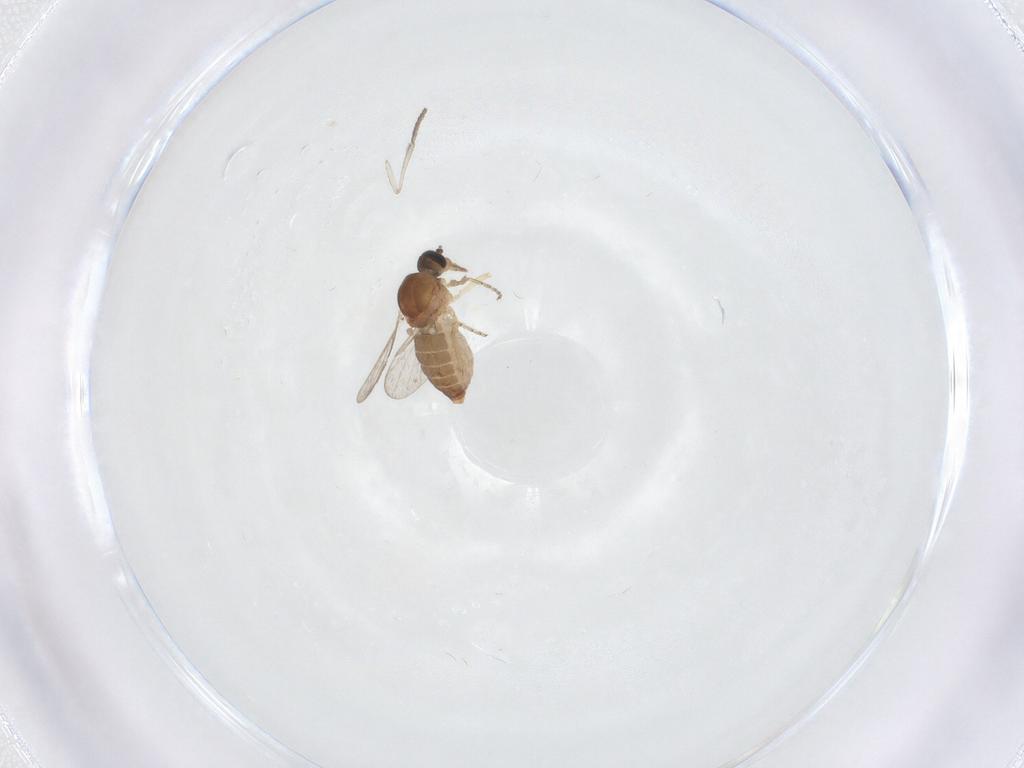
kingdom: Animalia
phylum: Arthropoda
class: Insecta
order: Diptera
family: Ceratopogonidae
